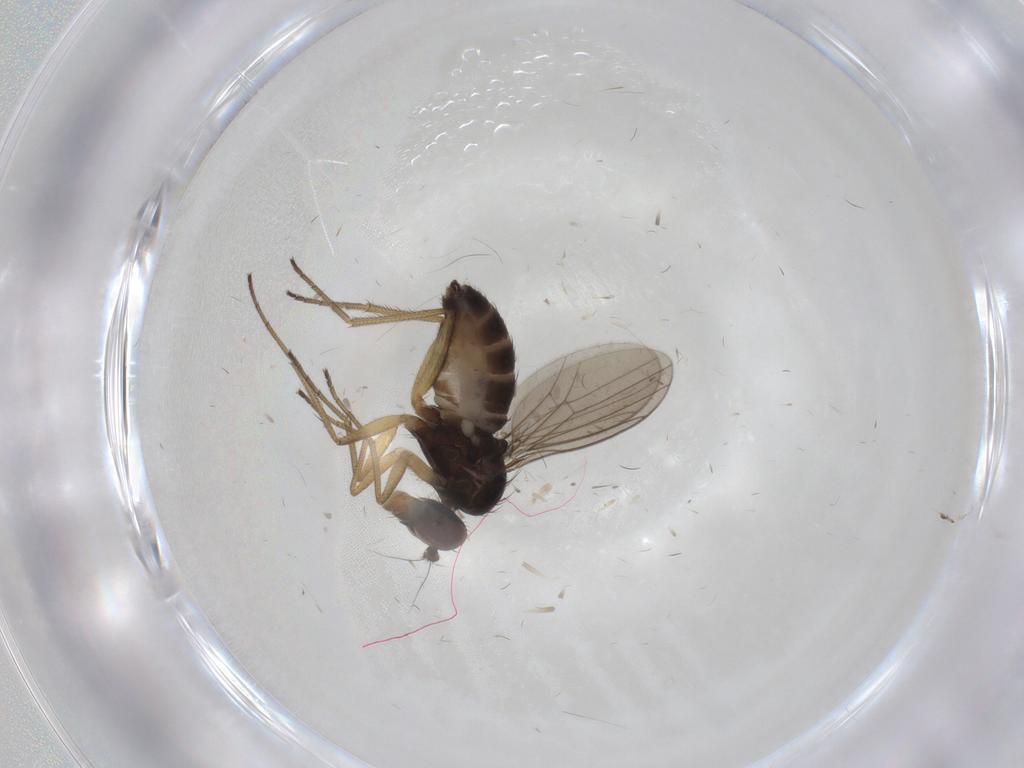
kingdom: Animalia
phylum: Arthropoda
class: Insecta
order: Diptera
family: Dolichopodidae
